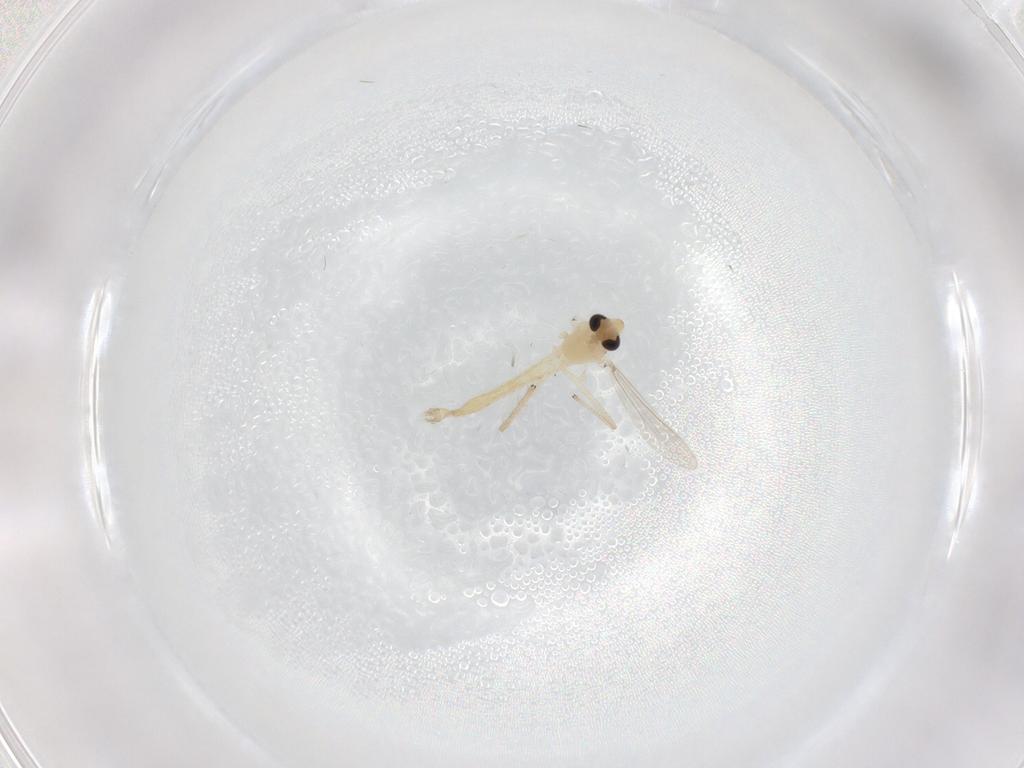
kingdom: Animalia
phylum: Arthropoda
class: Insecta
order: Diptera
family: Chironomidae
